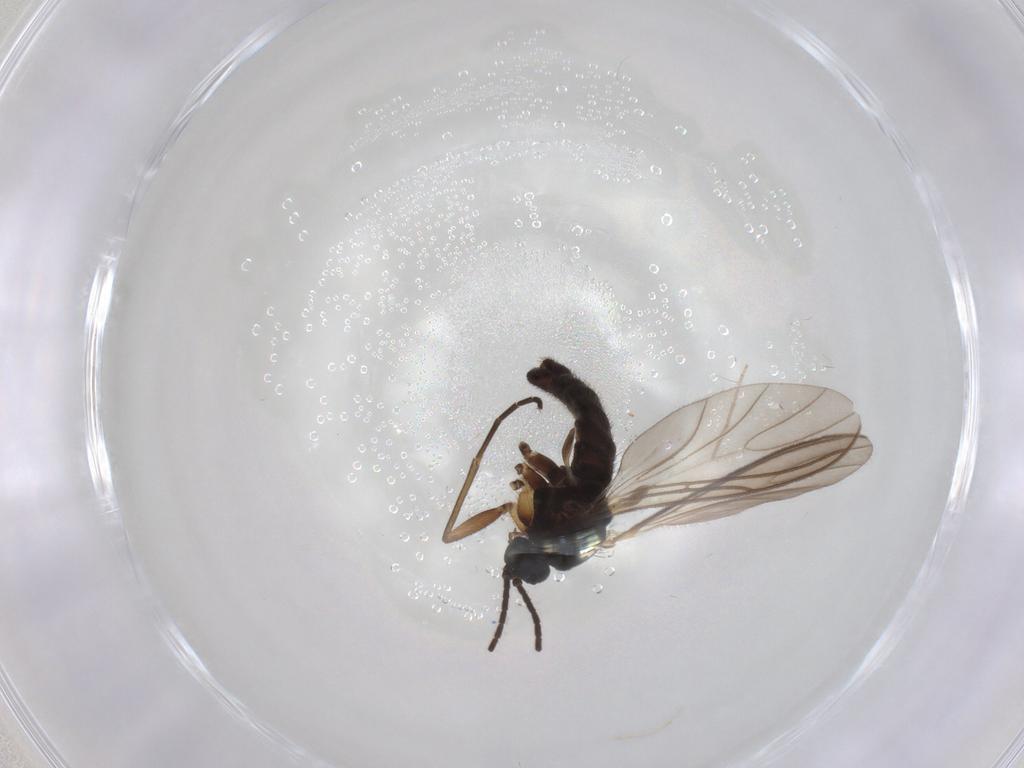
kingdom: Animalia
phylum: Arthropoda
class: Insecta
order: Diptera
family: Sciaridae
